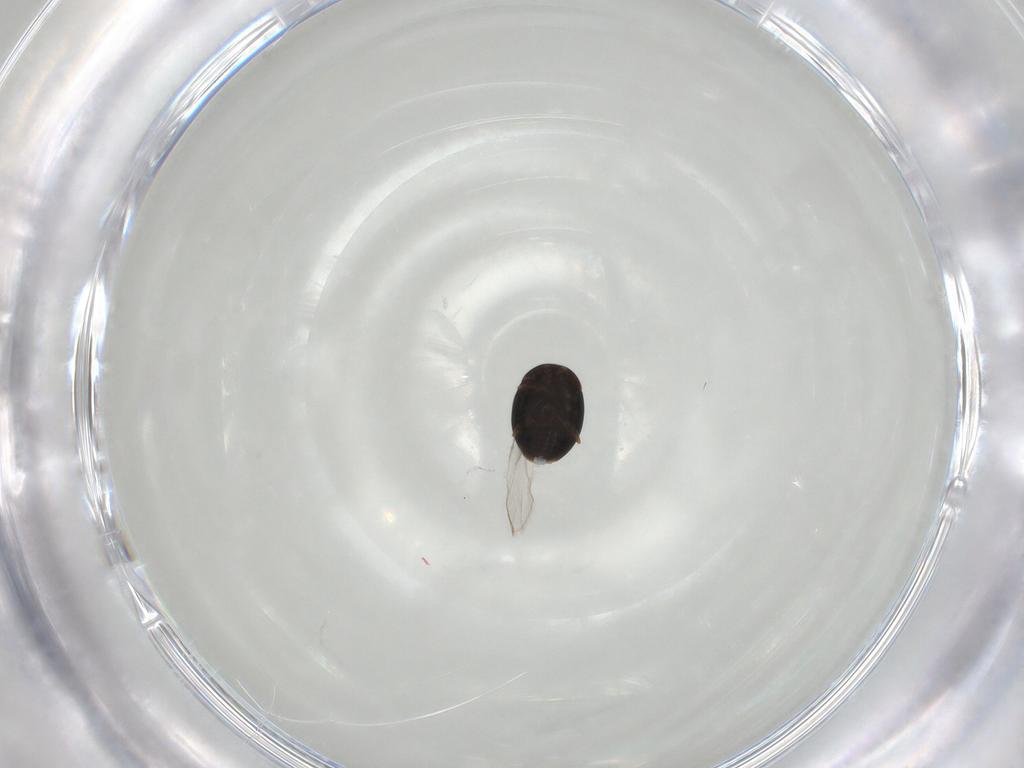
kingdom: Animalia
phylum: Arthropoda
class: Insecta
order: Coleoptera
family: Corylophidae
